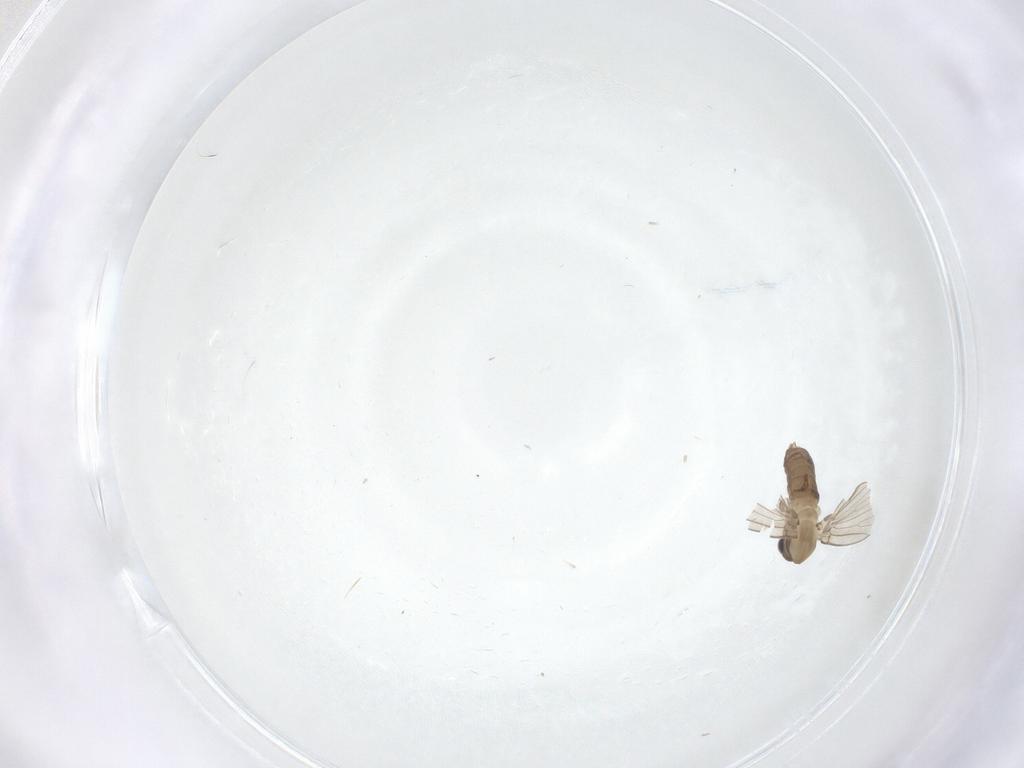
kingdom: Animalia
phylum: Arthropoda
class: Insecta
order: Diptera
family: Psychodidae
